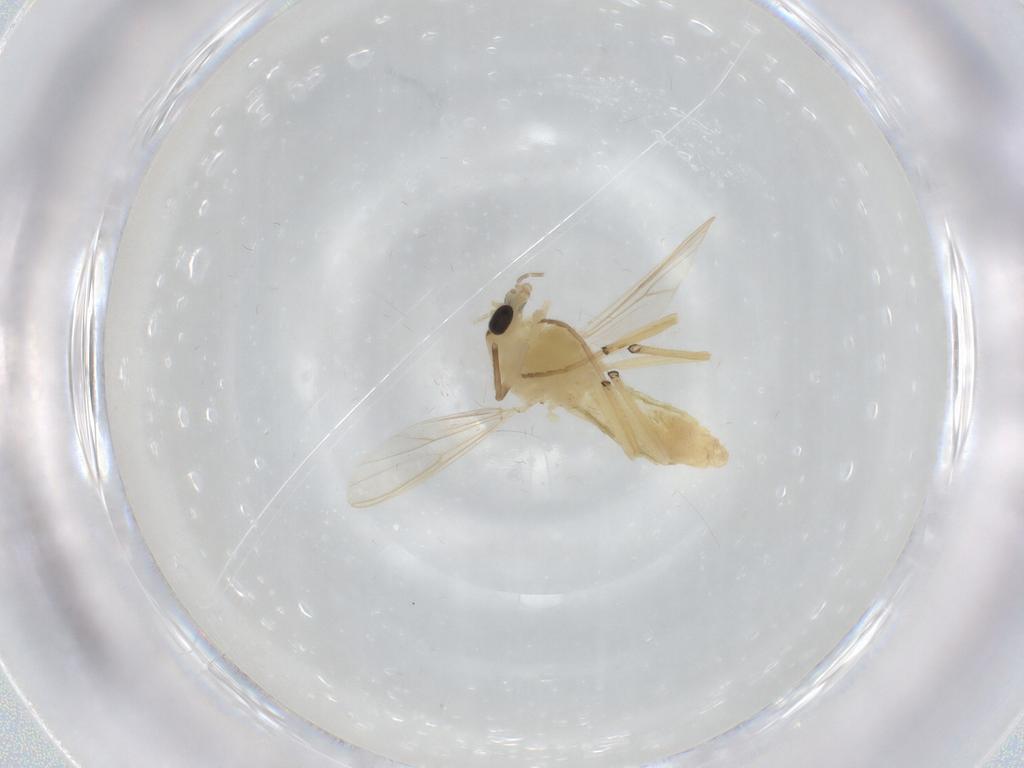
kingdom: Animalia
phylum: Arthropoda
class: Insecta
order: Diptera
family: Chironomidae
